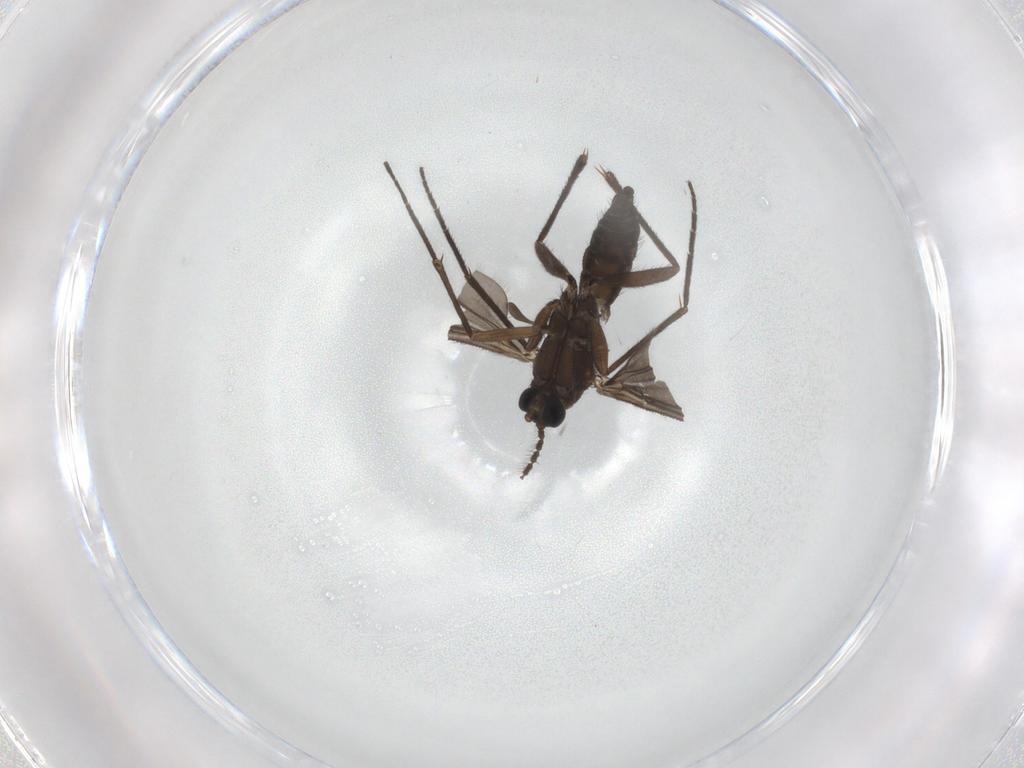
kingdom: Animalia
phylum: Arthropoda
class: Insecta
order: Diptera
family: Sciaridae
